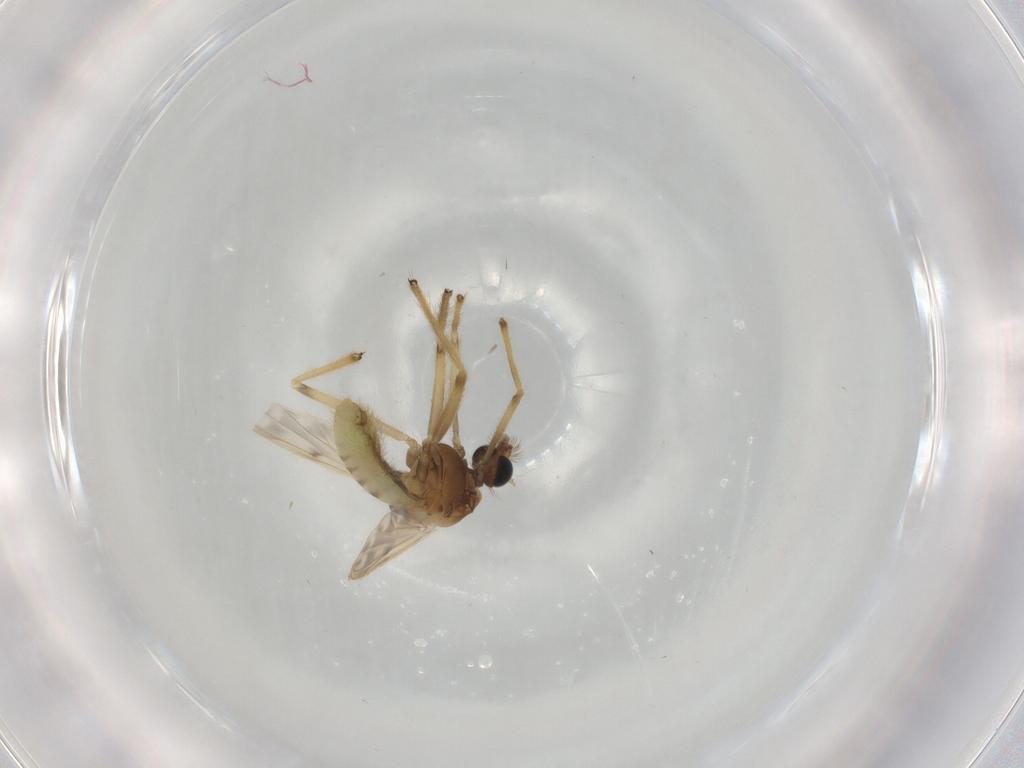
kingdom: Animalia
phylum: Arthropoda
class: Insecta
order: Diptera
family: Chironomidae
